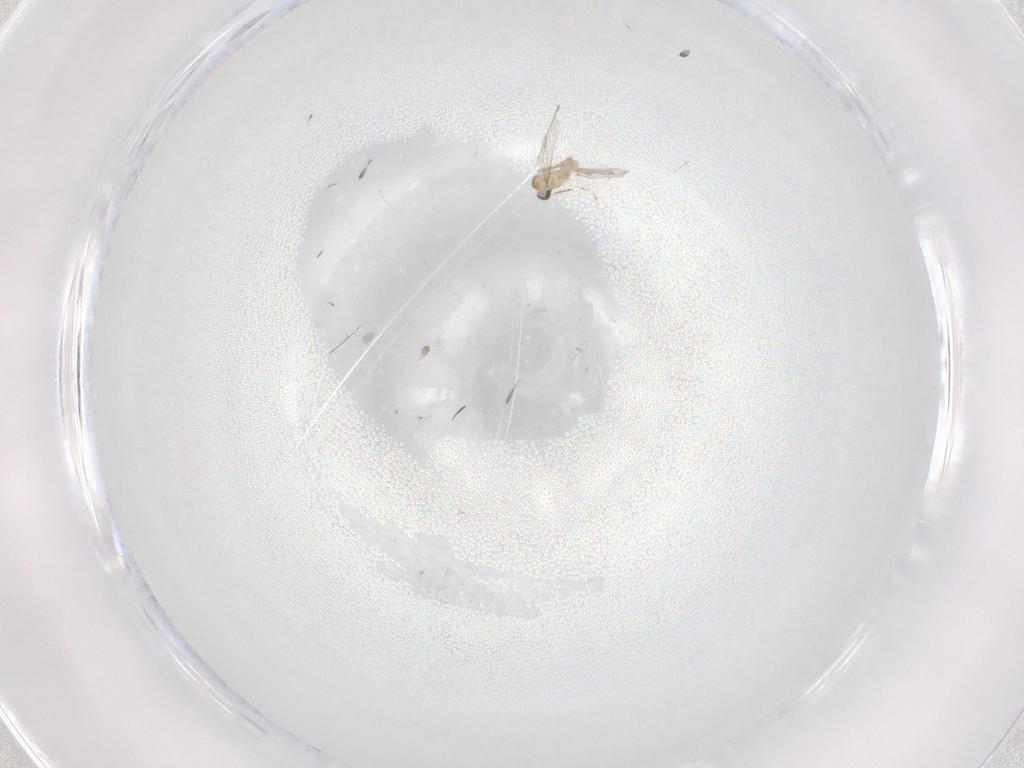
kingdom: Animalia
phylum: Arthropoda
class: Insecta
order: Diptera
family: Cecidomyiidae
